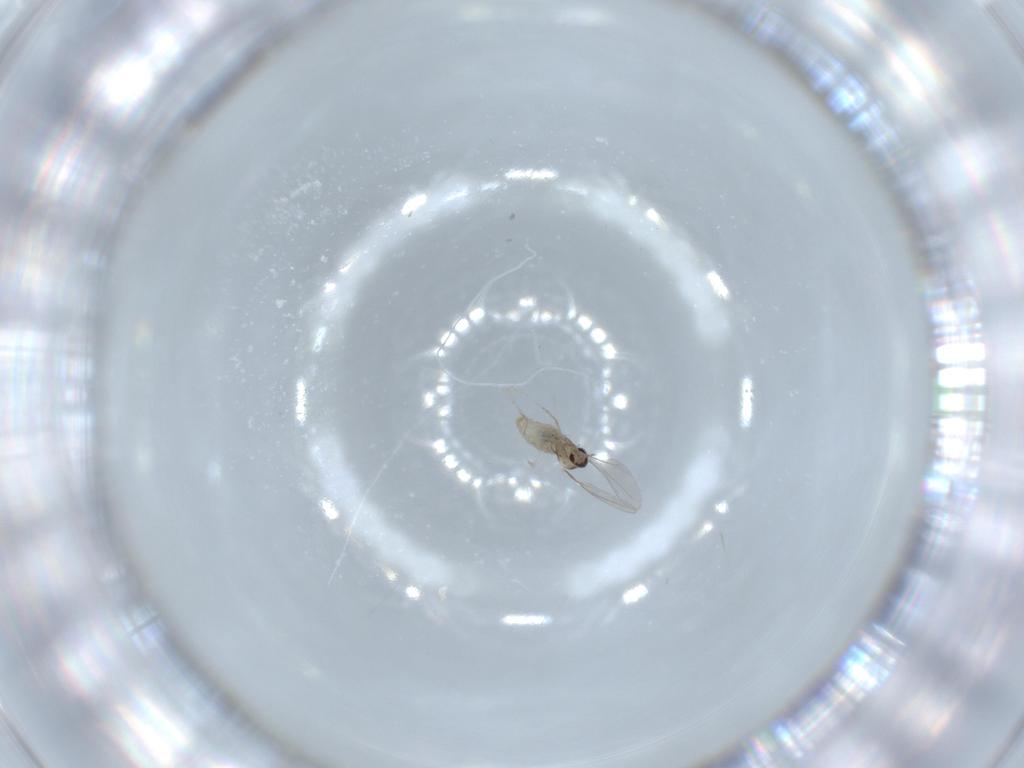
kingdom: Animalia
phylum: Arthropoda
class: Insecta
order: Diptera
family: Cecidomyiidae
